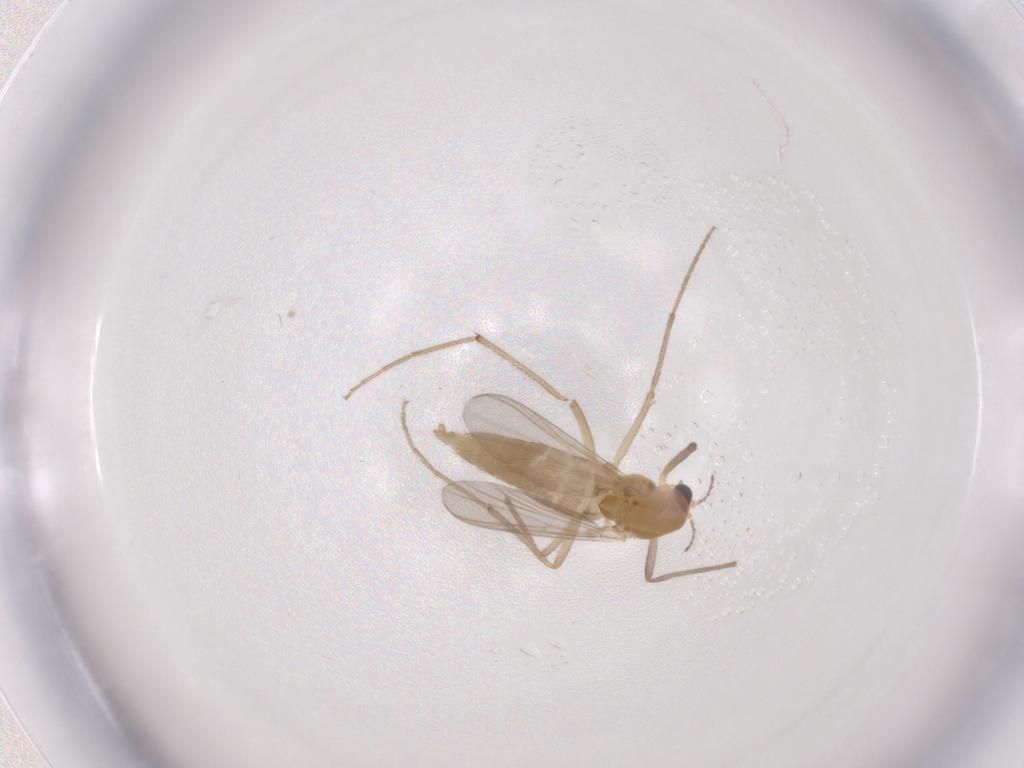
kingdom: Animalia
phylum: Arthropoda
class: Insecta
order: Diptera
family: Chironomidae
